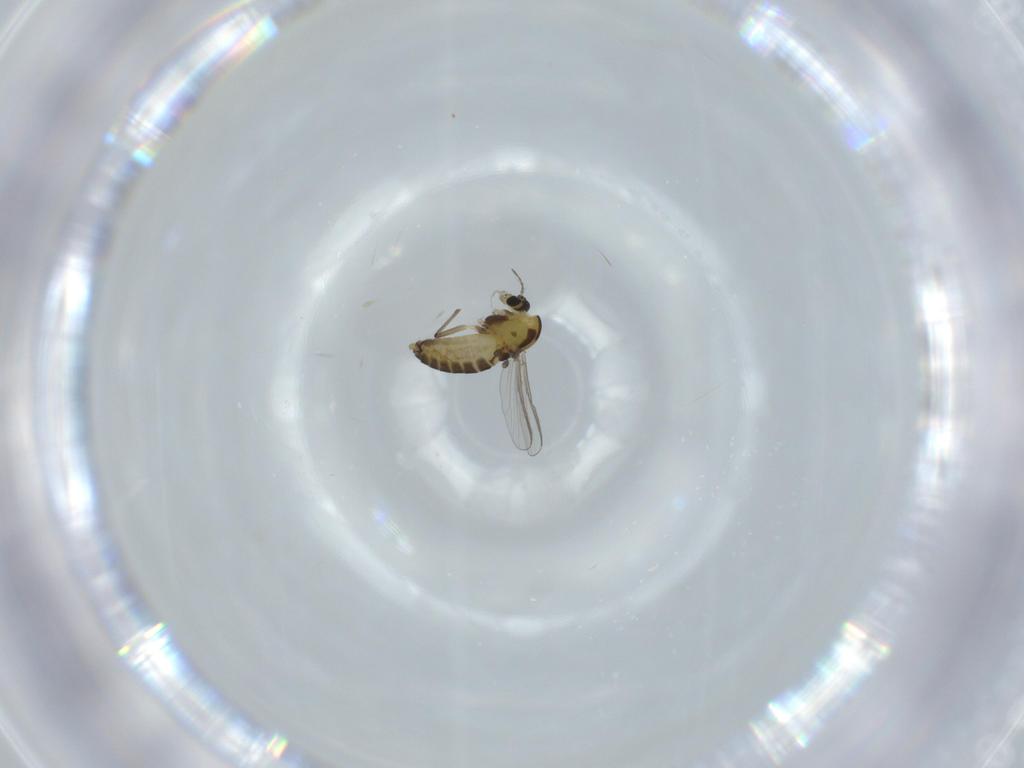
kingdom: Animalia
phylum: Arthropoda
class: Insecta
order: Diptera
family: Chironomidae
